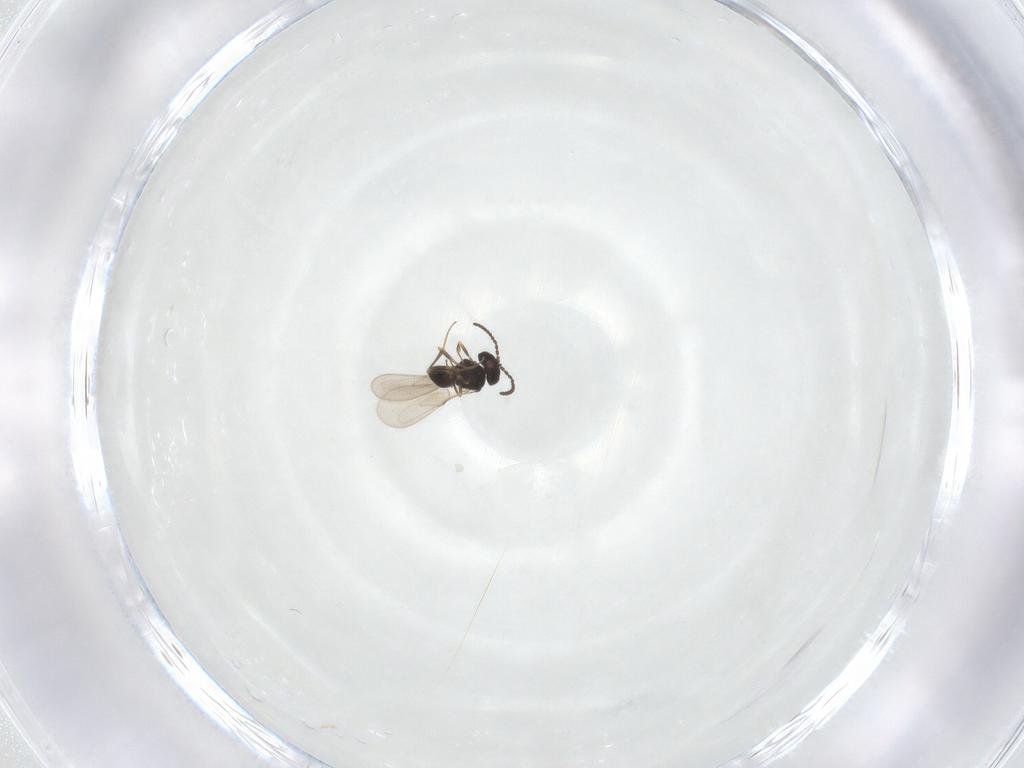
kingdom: Animalia
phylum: Arthropoda
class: Insecta
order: Hymenoptera
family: Scelionidae
